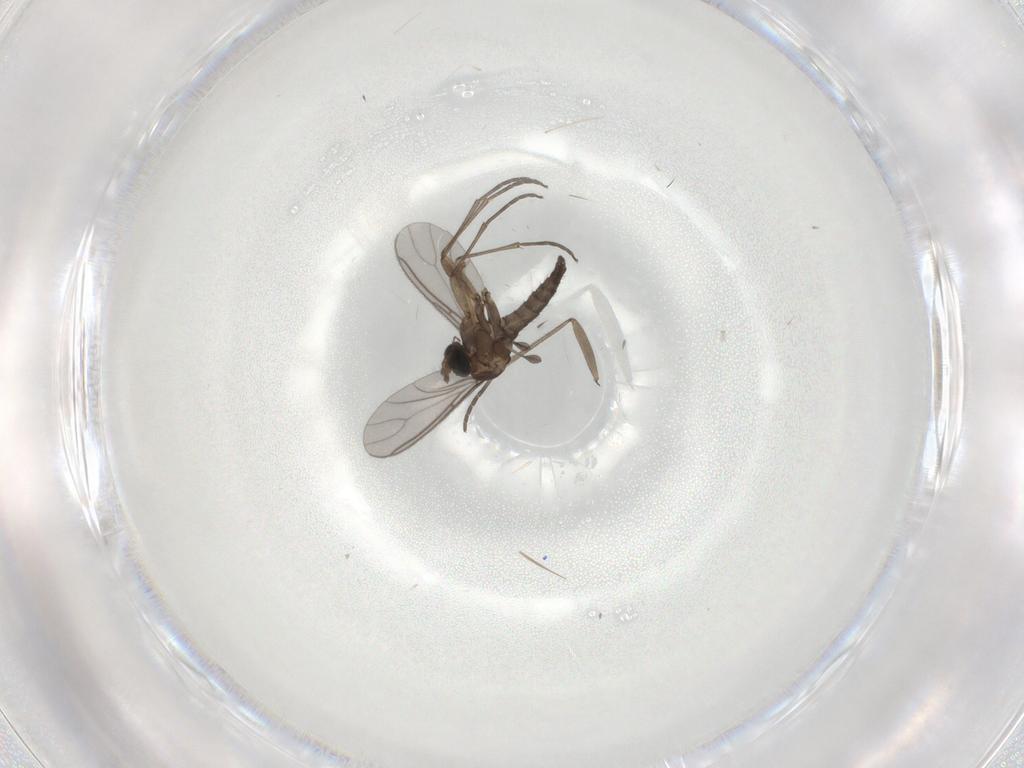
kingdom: Animalia
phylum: Arthropoda
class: Insecta
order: Diptera
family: Sciaridae
